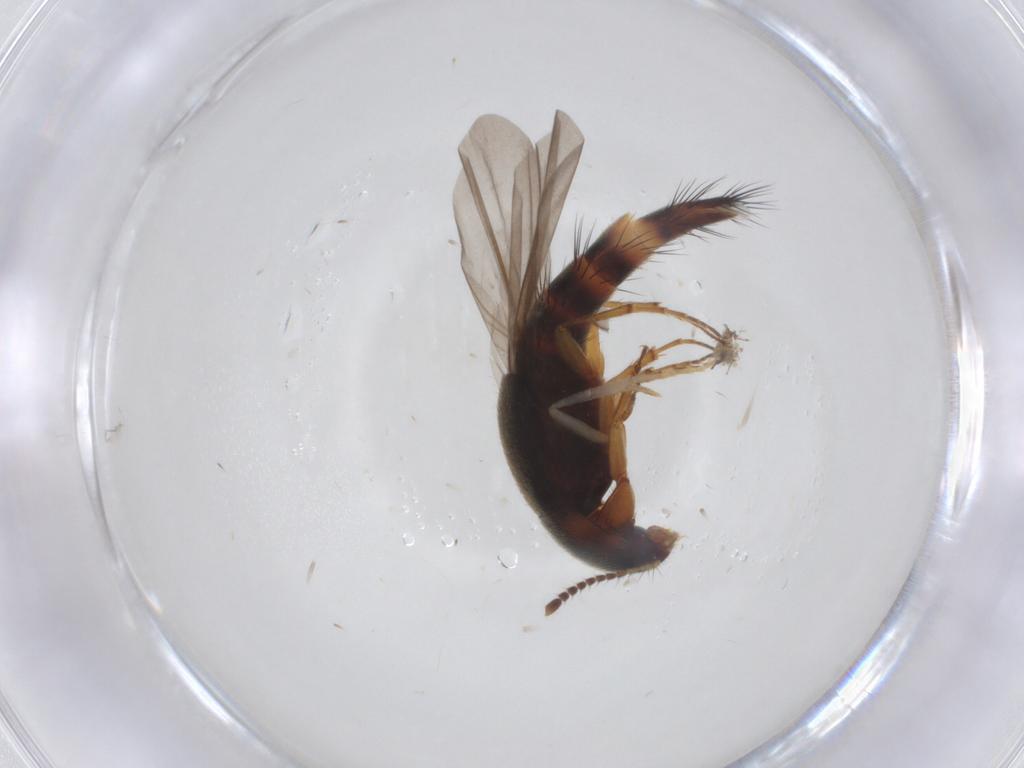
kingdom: Animalia
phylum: Arthropoda
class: Insecta
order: Coleoptera
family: Staphylinidae
